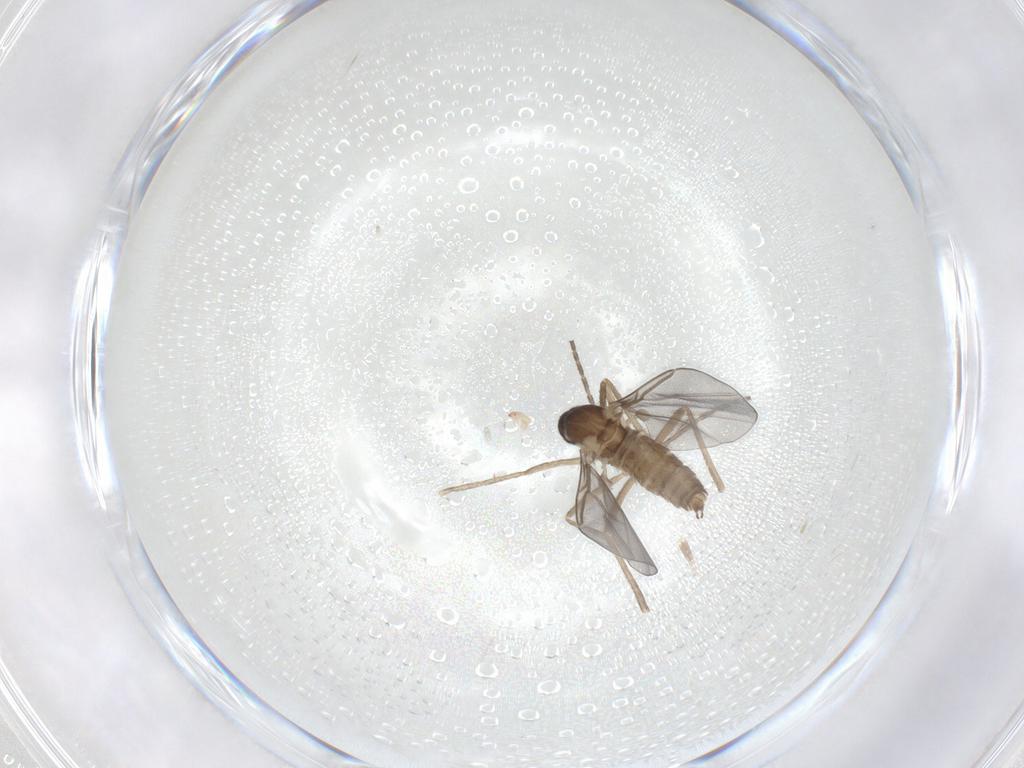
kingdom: Animalia
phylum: Arthropoda
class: Insecta
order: Diptera
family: Cecidomyiidae
